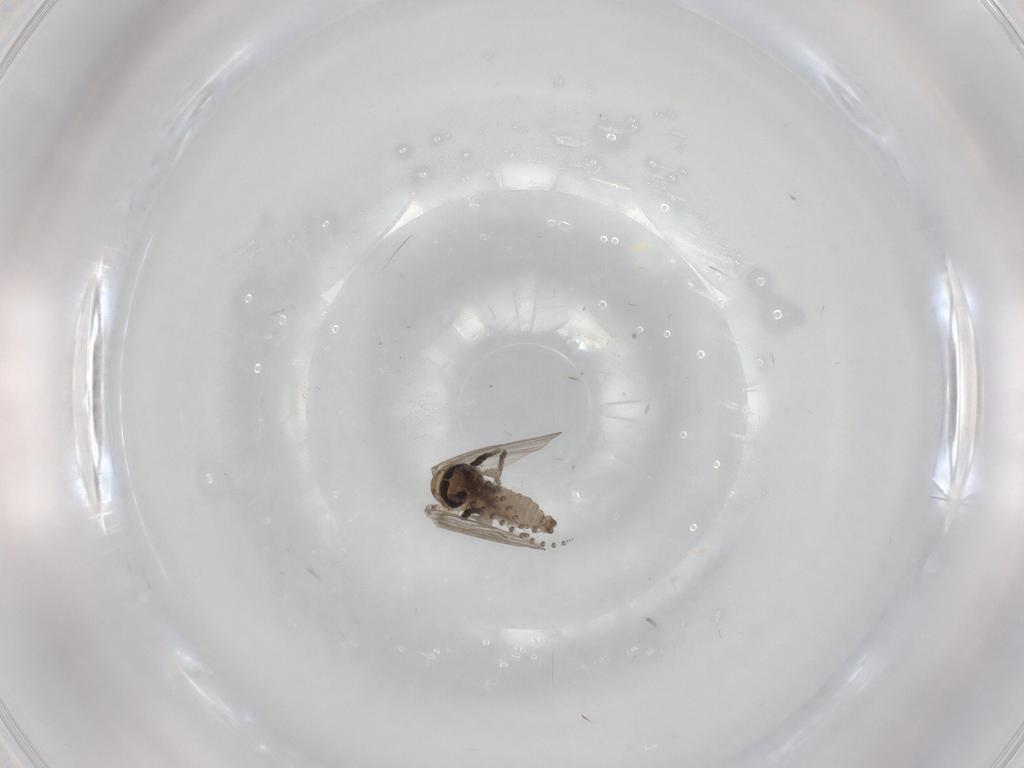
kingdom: Animalia
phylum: Arthropoda
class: Insecta
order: Diptera
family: Psychodidae
